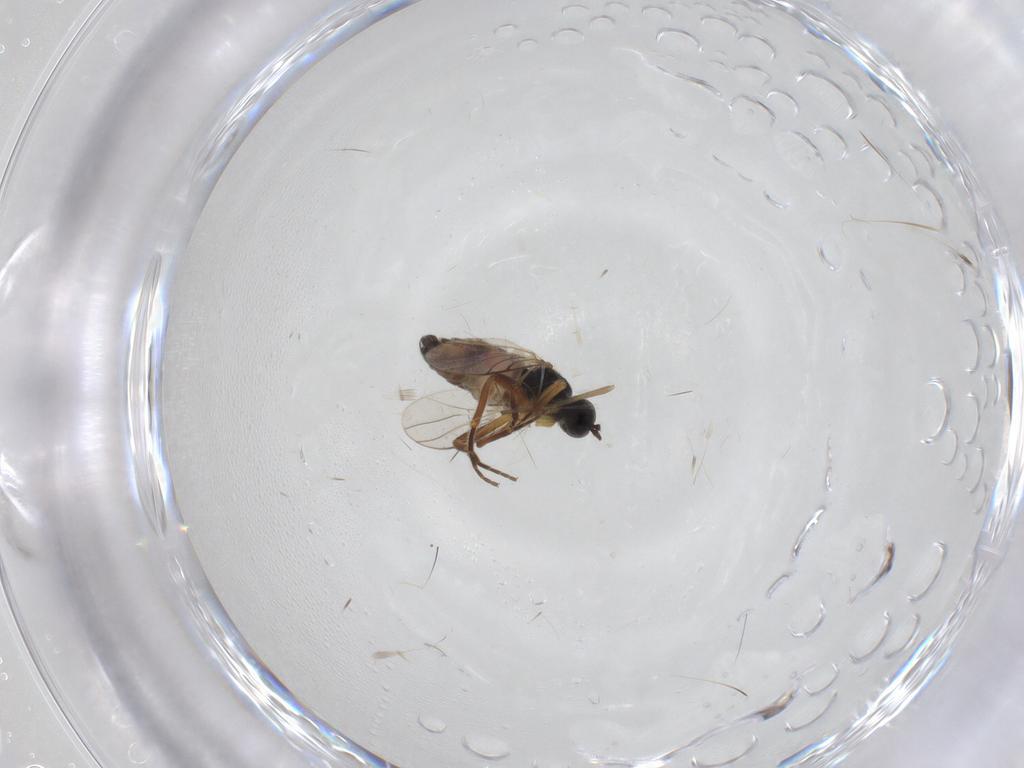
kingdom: Animalia
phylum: Arthropoda
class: Insecta
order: Diptera
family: Hybotidae
